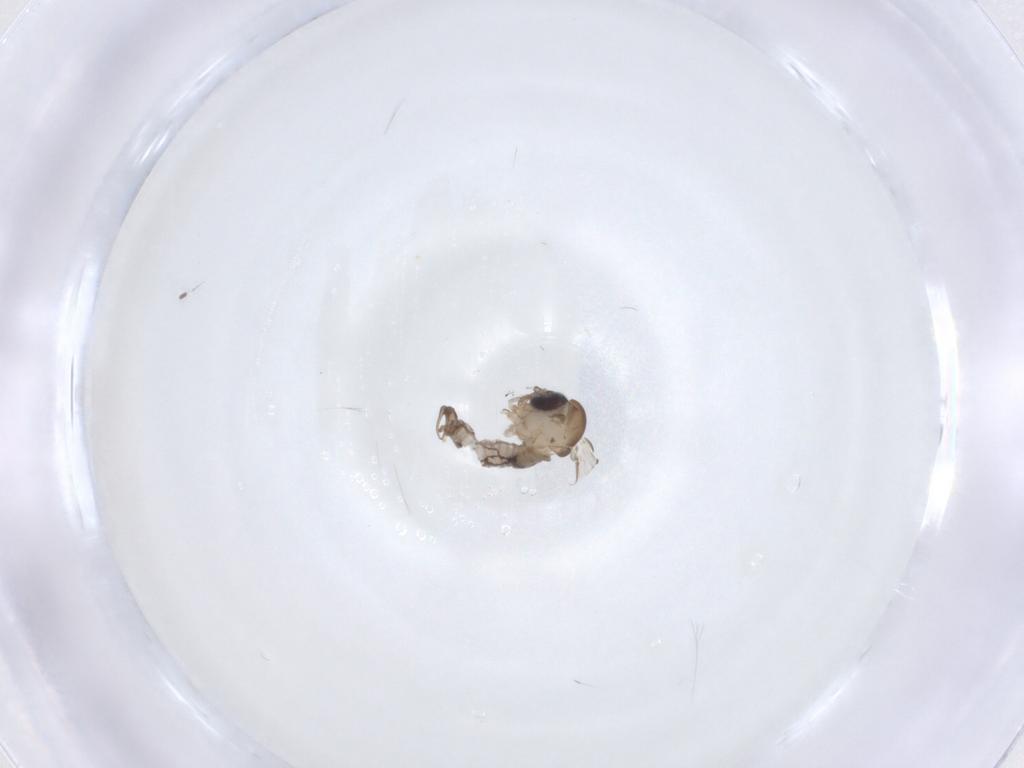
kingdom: Animalia
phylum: Arthropoda
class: Insecta
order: Diptera
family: Psychodidae
